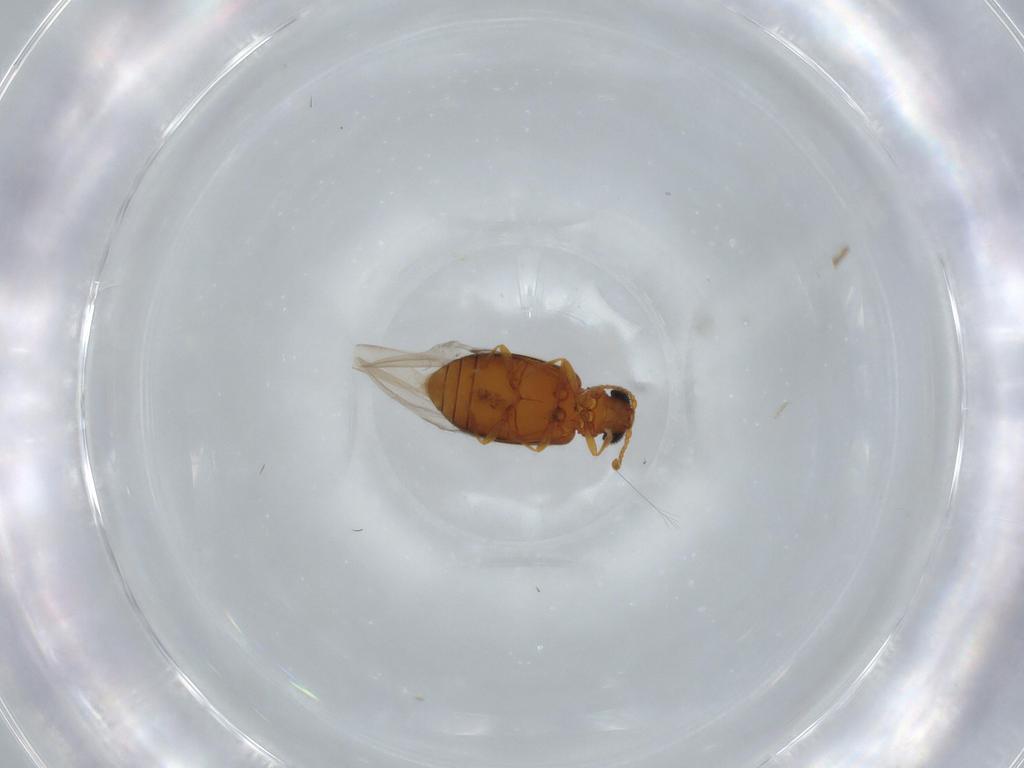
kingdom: Animalia
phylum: Arthropoda
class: Insecta
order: Coleoptera
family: Aderidae
